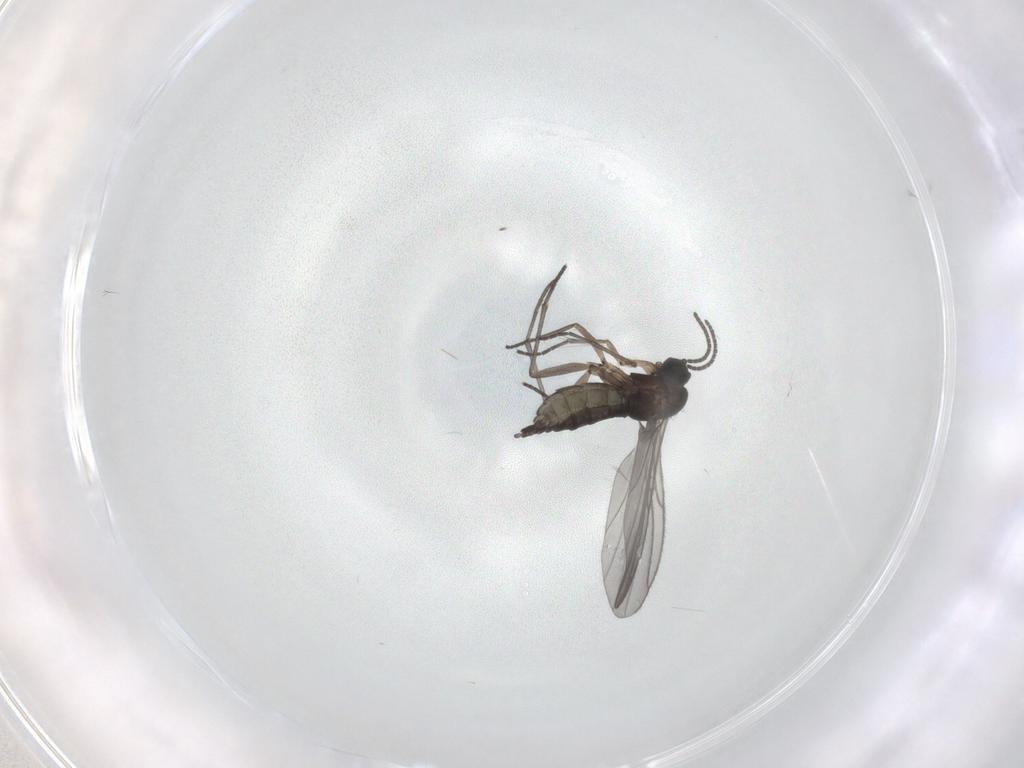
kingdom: Animalia
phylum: Arthropoda
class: Insecta
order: Diptera
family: Sciaridae
